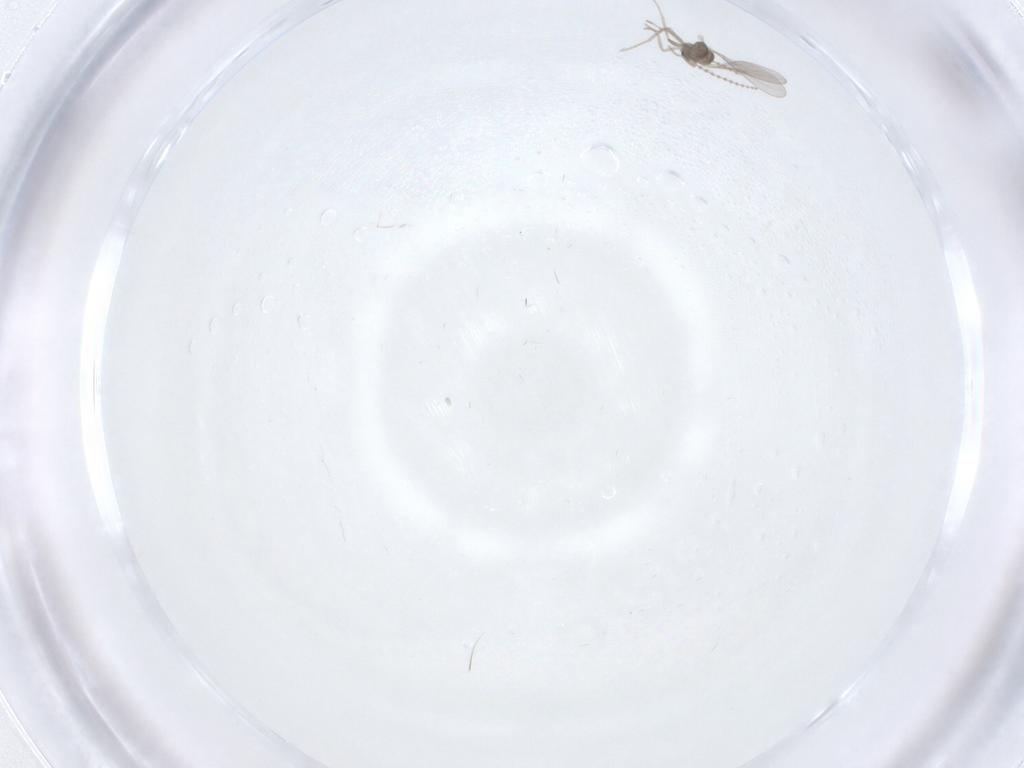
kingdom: Animalia
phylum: Arthropoda
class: Insecta
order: Diptera
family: Cecidomyiidae
